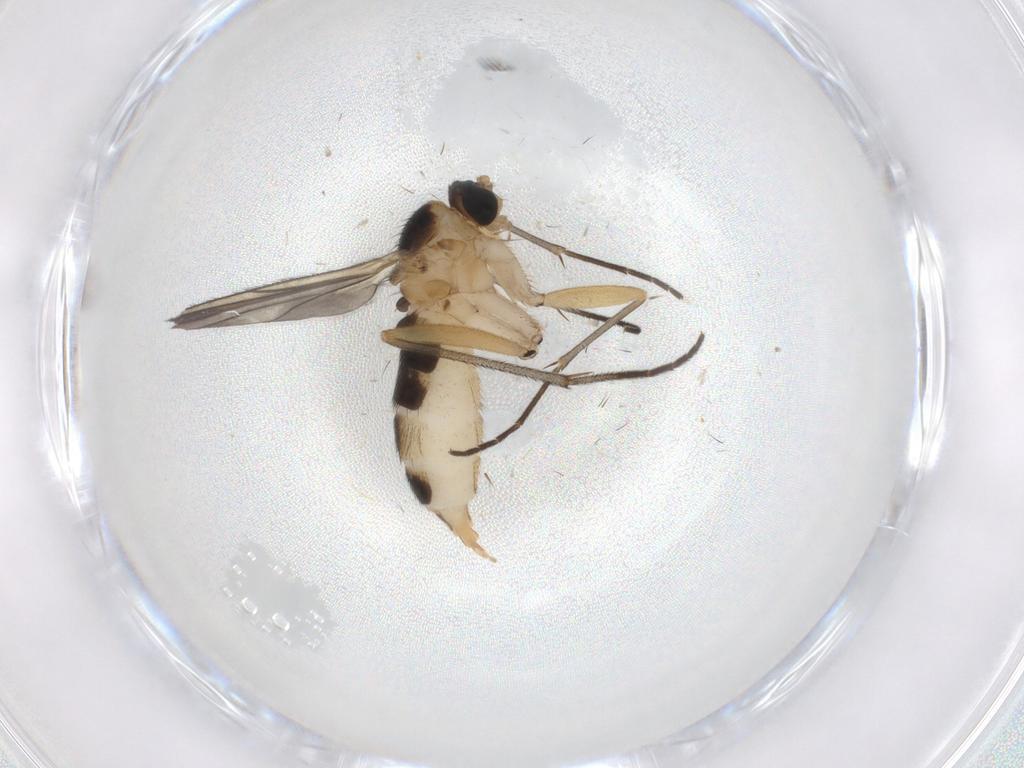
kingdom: Animalia
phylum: Arthropoda
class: Insecta
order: Diptera
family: Sciaridae
